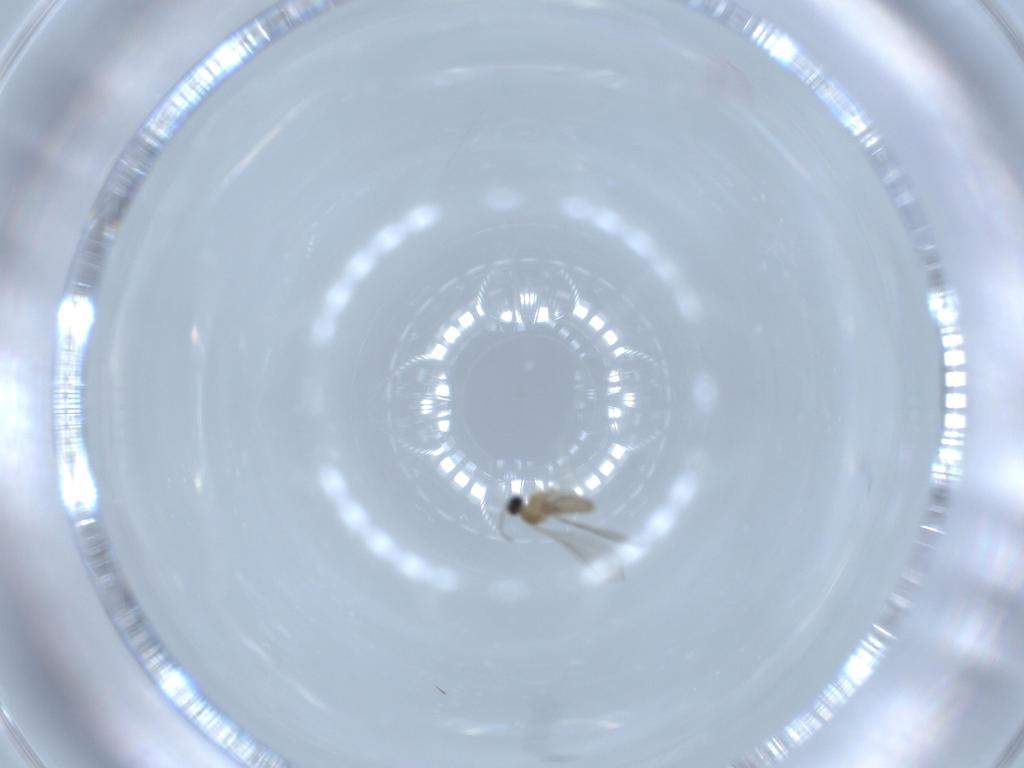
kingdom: Animalia
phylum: Arthropoda
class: Insecta
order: Diptera
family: Cecidomyiidae
